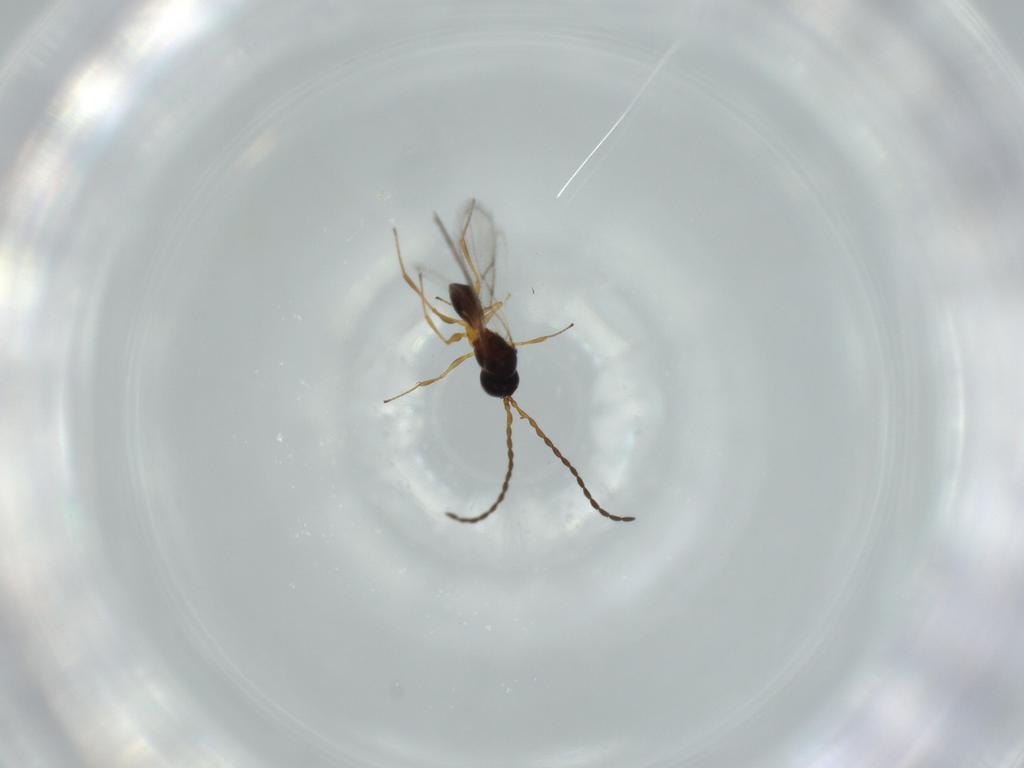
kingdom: Animalia
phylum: Arthropoda
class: Insecta
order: Hymenoptera
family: Figitidae
